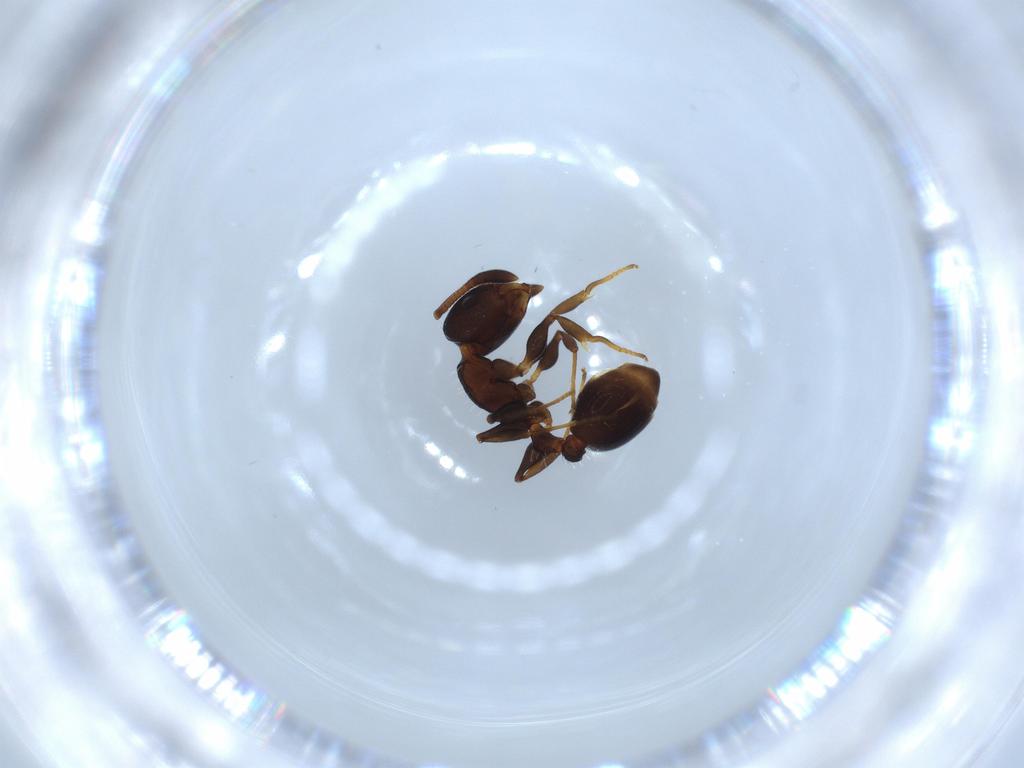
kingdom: Animalia
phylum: Arthropoda
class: Insecta
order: Hymenoptera
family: Formicidae
